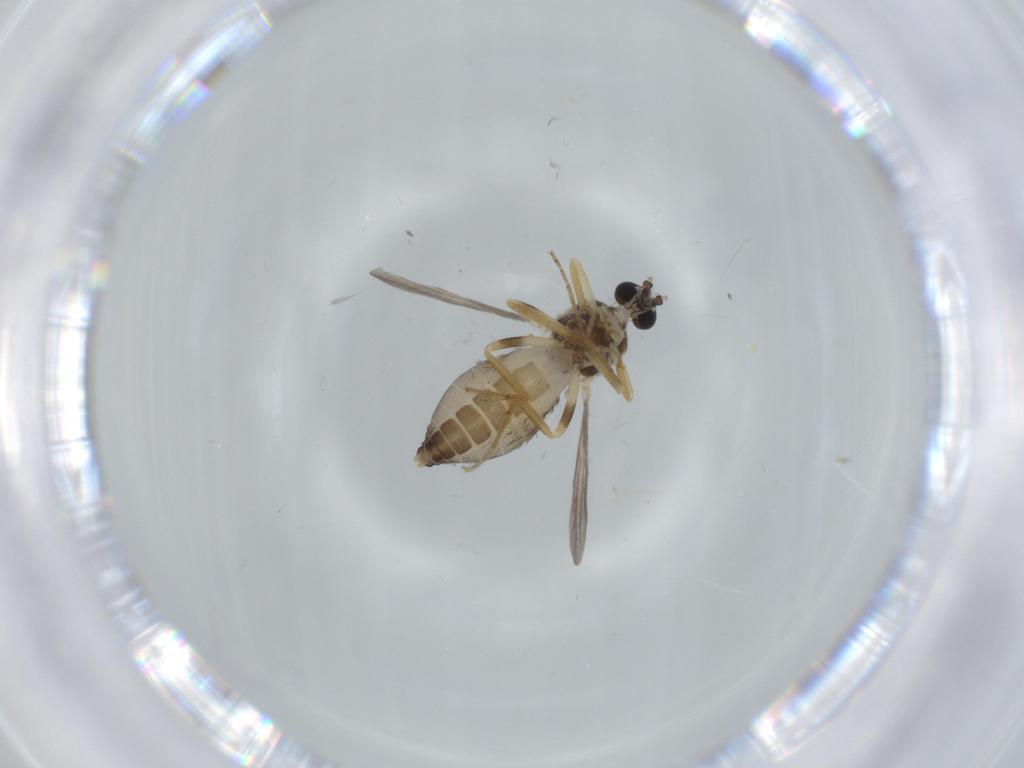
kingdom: Animalia
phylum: Arthropoda
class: Insecta
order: Diptera
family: Ceratopogonidae
